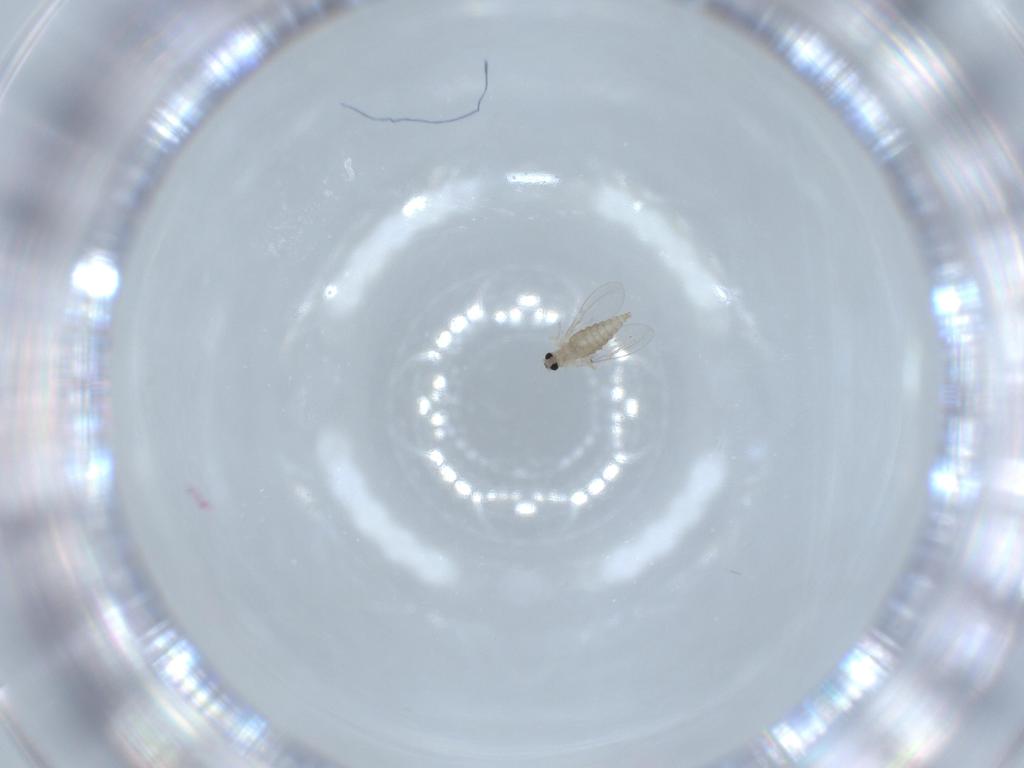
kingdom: Animalia
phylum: Arthropoda
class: Insecta
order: Diptera
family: Cecidomyiidae
